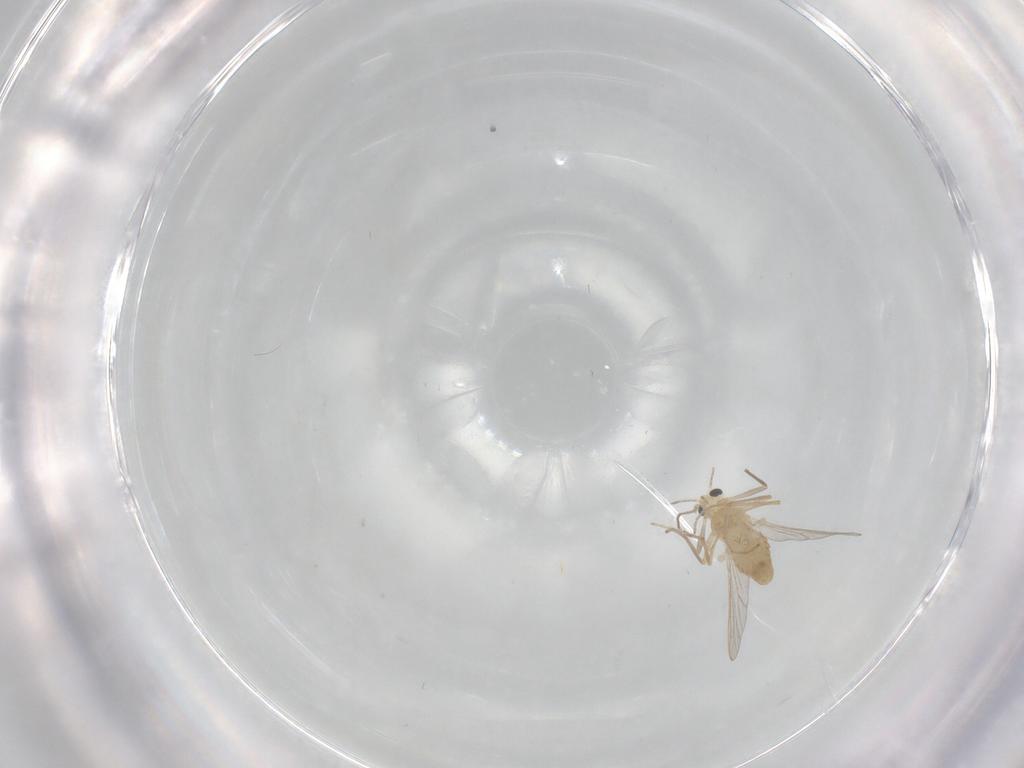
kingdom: Animalia
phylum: Arthropoda
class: Insecta
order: Diptera
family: Chironomidae
